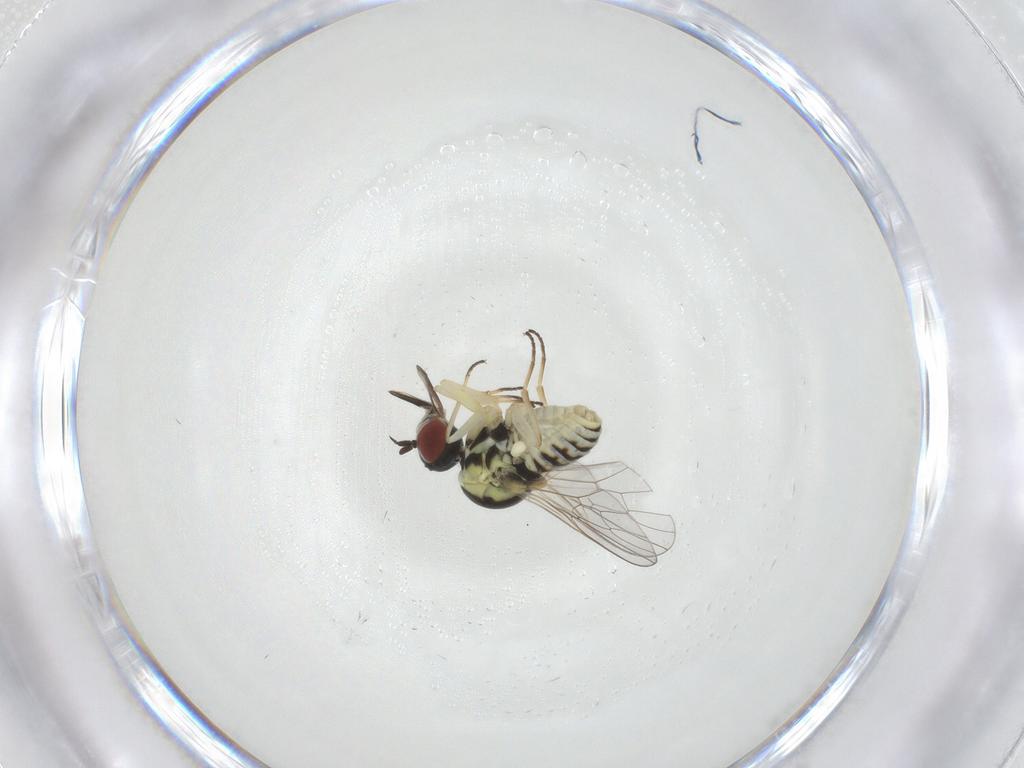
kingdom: Animalia
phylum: Arthropoda
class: Insecta
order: Diptera
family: Mythicomyiidae
